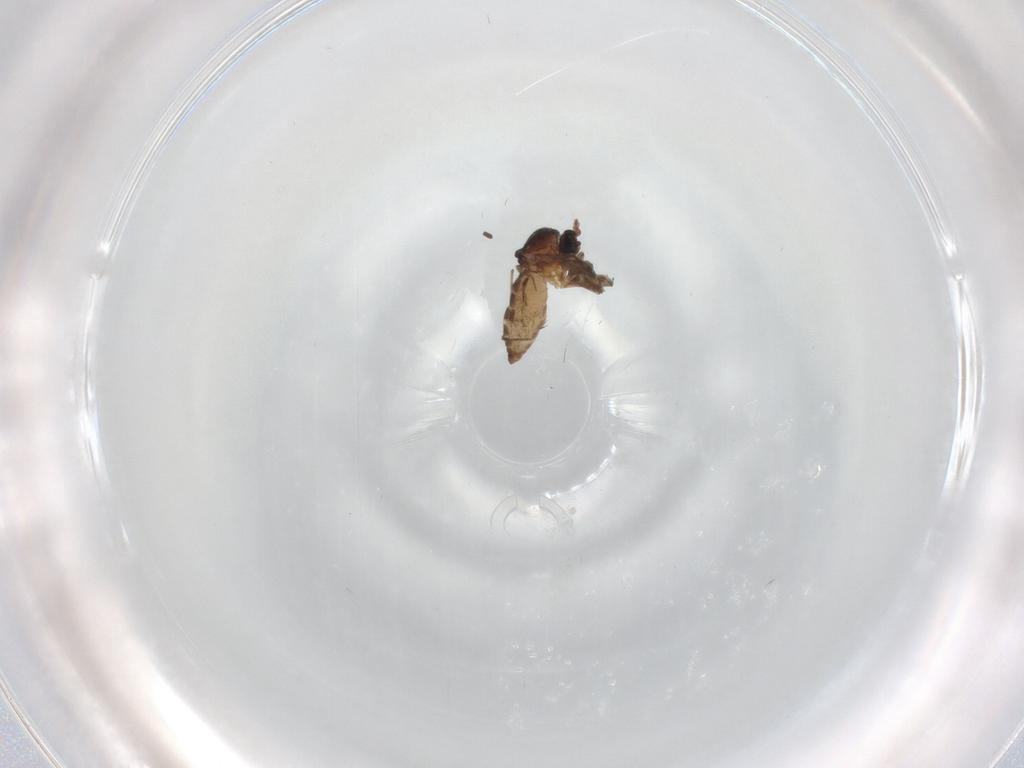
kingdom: Animalia
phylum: Arthropoda
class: Insecta
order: Diptera
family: Chironomidae
